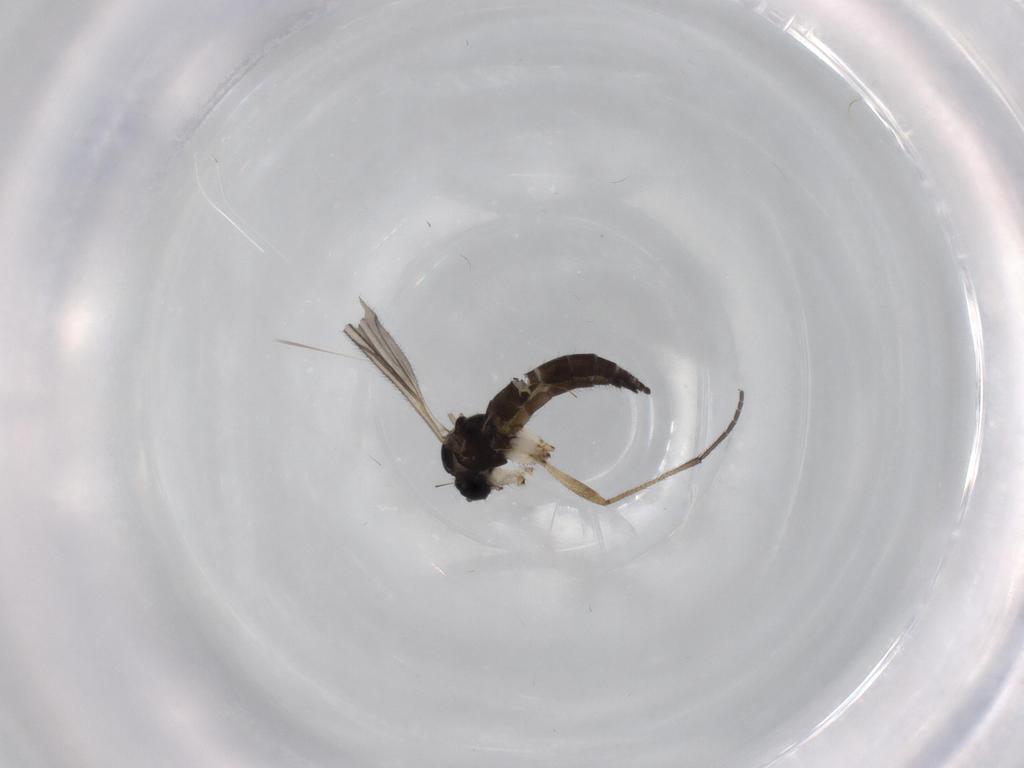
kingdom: Animalia
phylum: Arthropoda
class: Insecta
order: Diptera
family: Sciaridae
